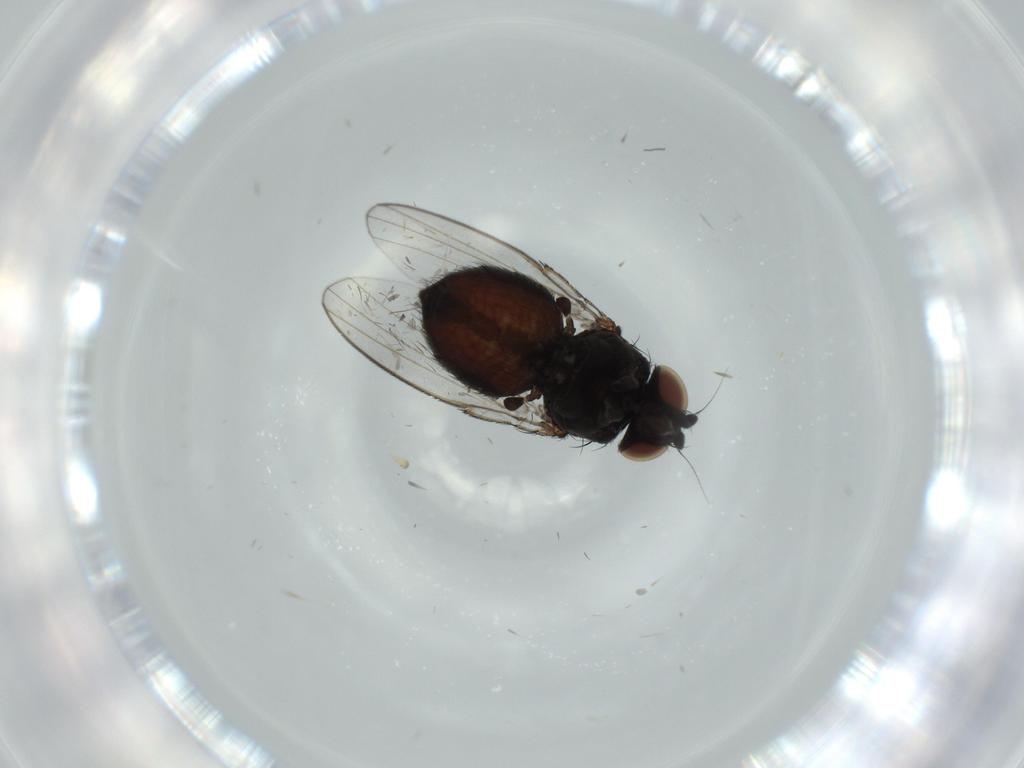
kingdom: Animalia
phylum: Arthropoda
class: Insecta
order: Diptera
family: Milichiidae
